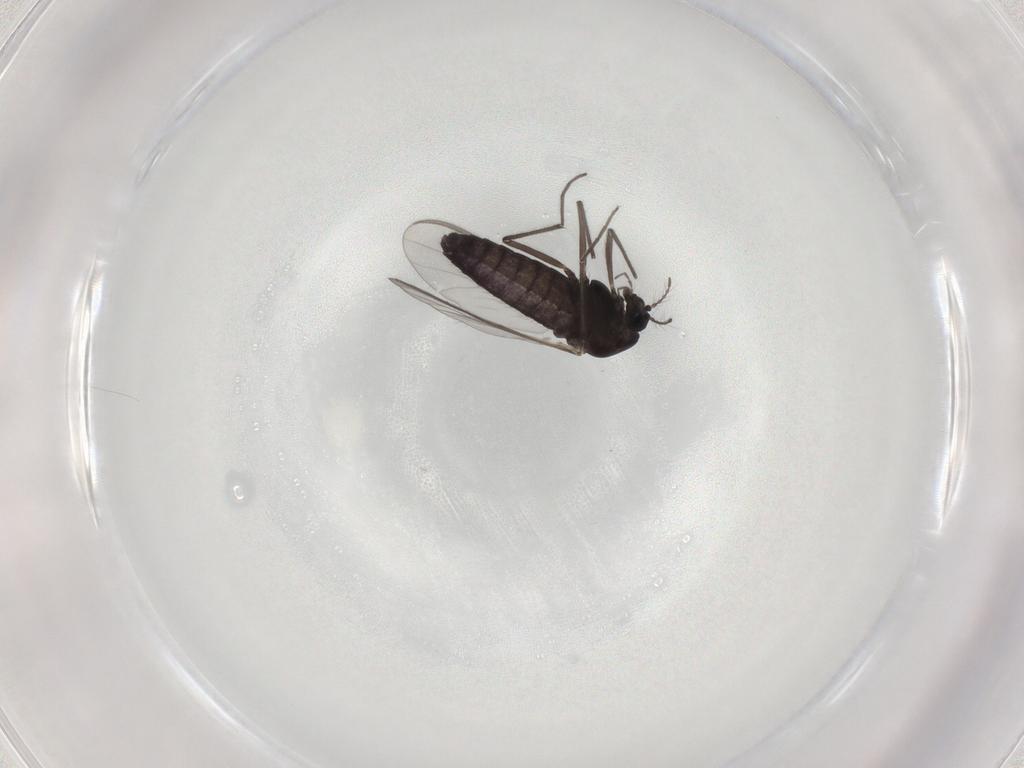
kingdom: Animalia
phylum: Arthropoda
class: Insecta
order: Diptera
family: Chironomidae
